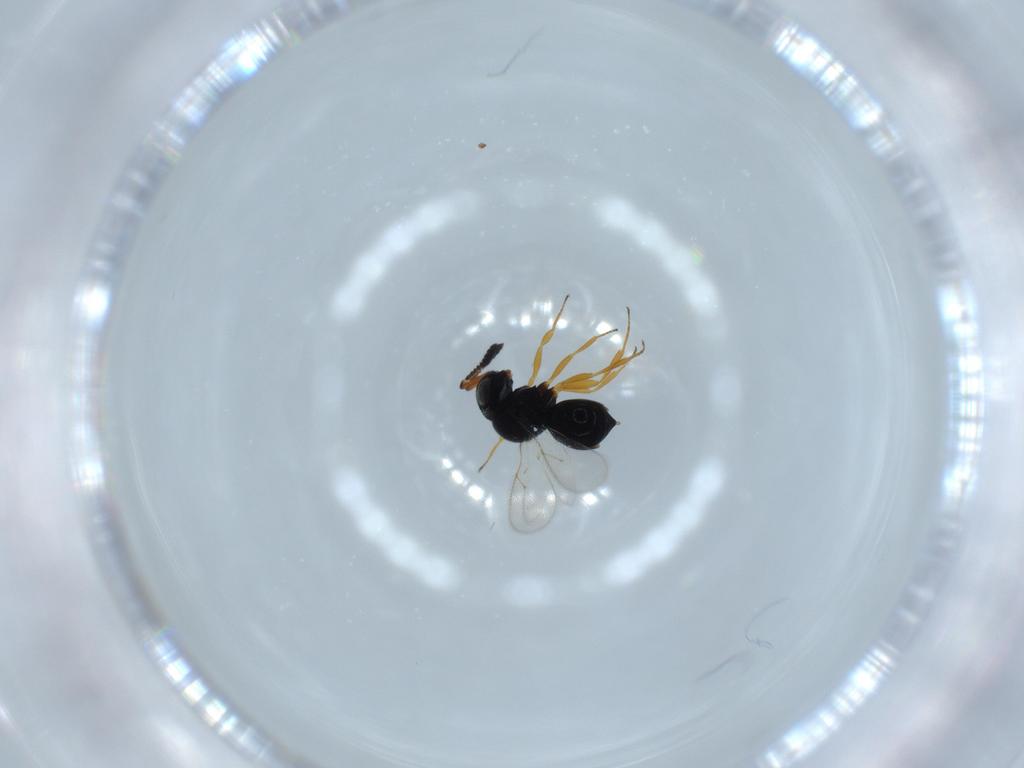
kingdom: Animalia
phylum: Arthropoda
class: Insecta
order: Hymenoptera
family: Scelionidae
